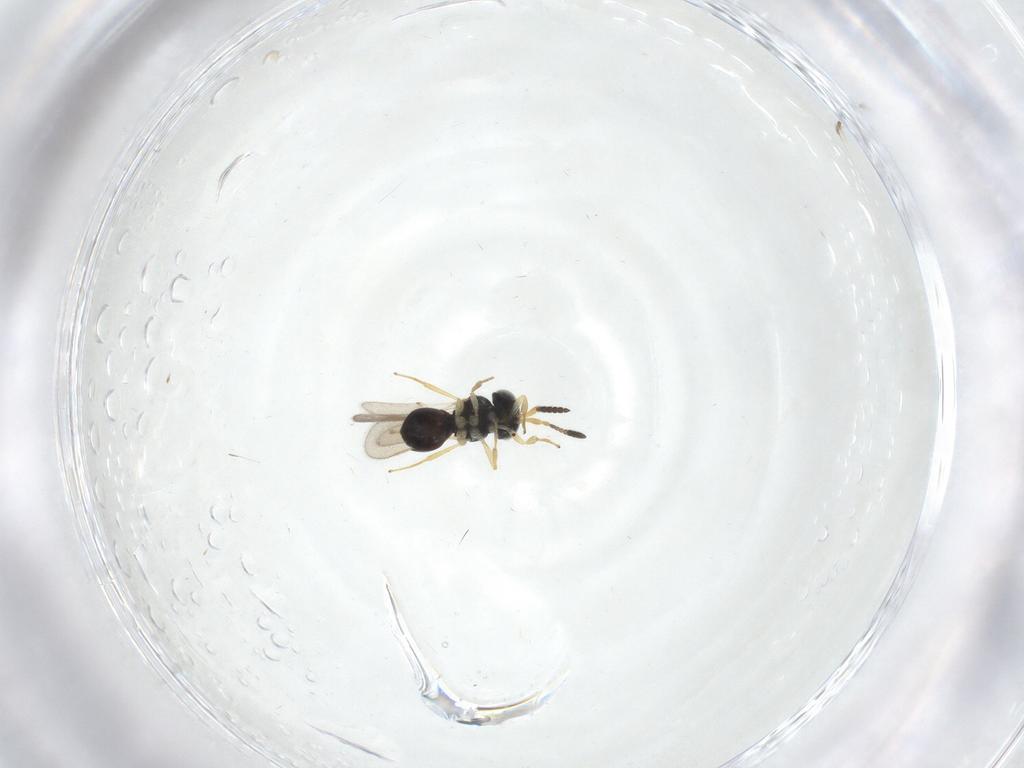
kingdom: Animalia
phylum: Arthropoda
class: Insecta
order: Hymenoptera
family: Scelionidae
